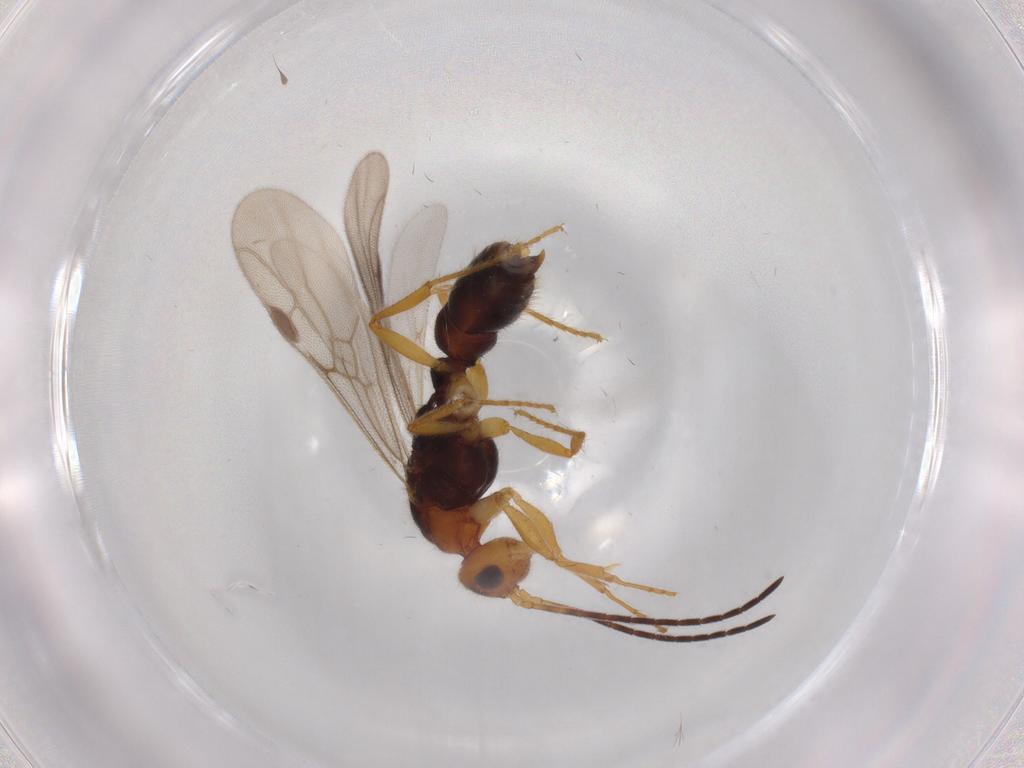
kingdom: Animalia
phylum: Arthropoda
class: Insecta
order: Hymenoptera
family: Formicidae
